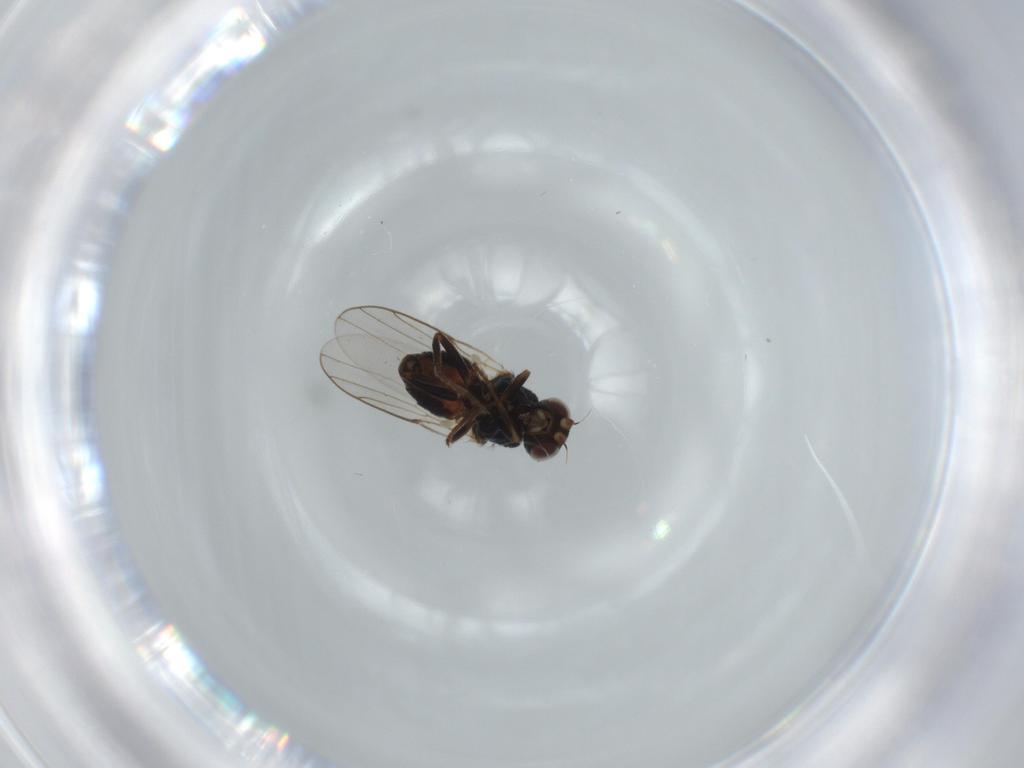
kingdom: Animalia
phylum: Arthropoda
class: Insecta
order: Diptera
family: Chloropidae
